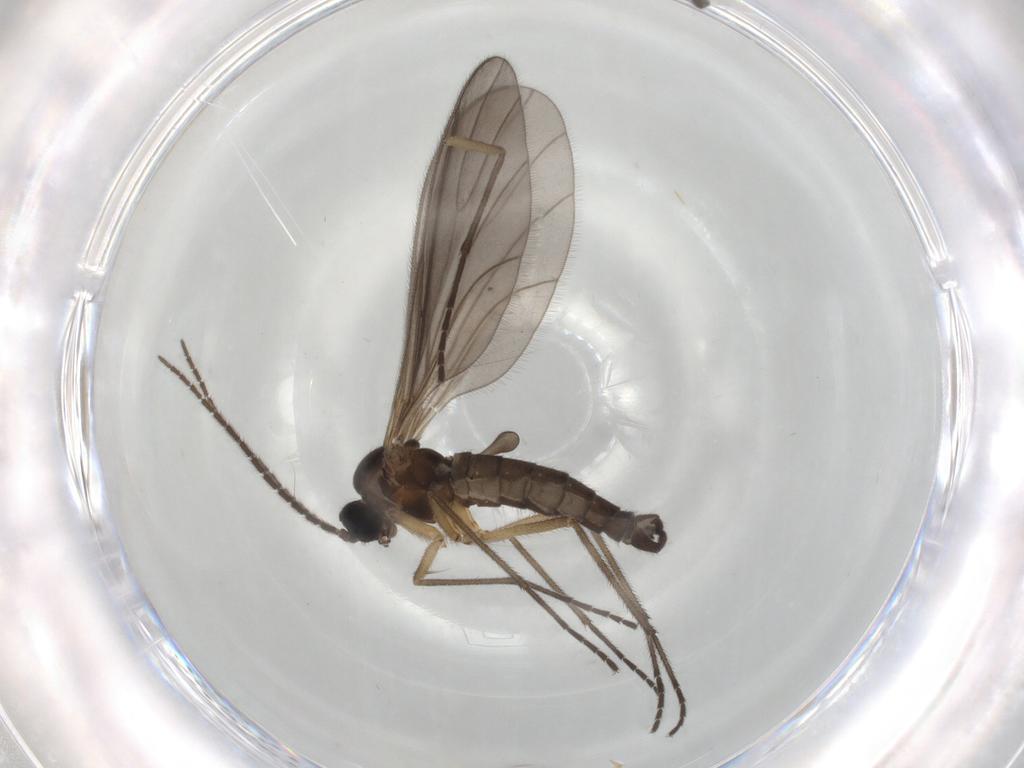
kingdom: Animalia
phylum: Arthropoda
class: Insecta
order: Diptera
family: Sciaridae
